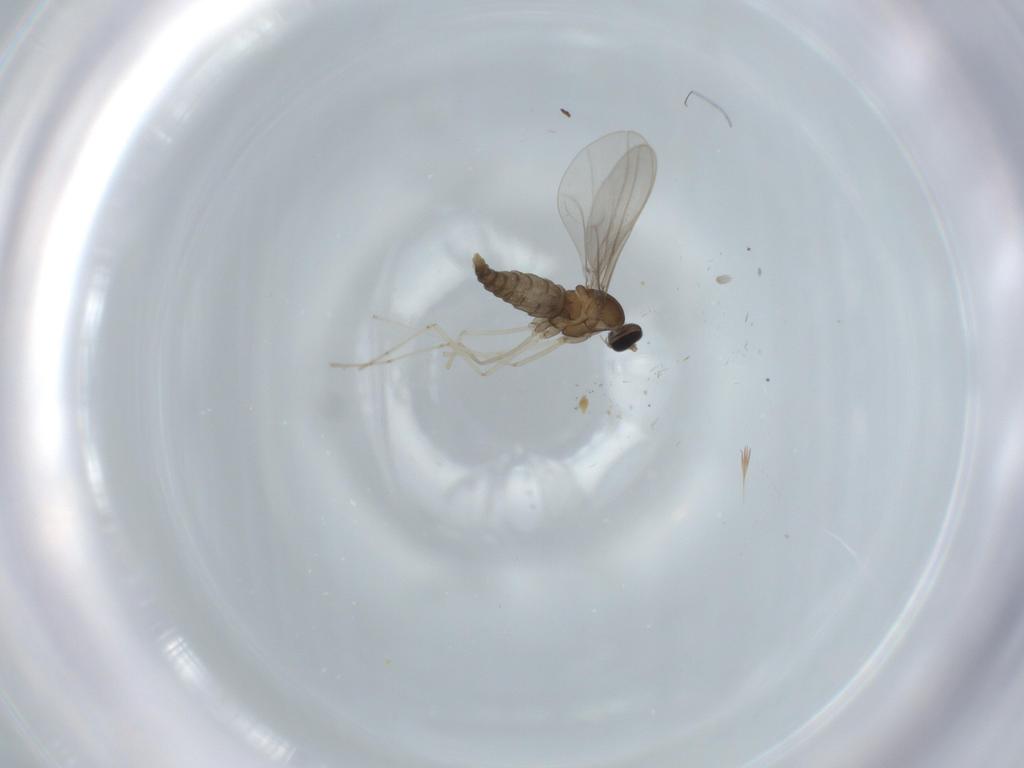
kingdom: Animalia
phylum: Arthropoda
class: Insecta
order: Diptera
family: Cecidomyiidae
